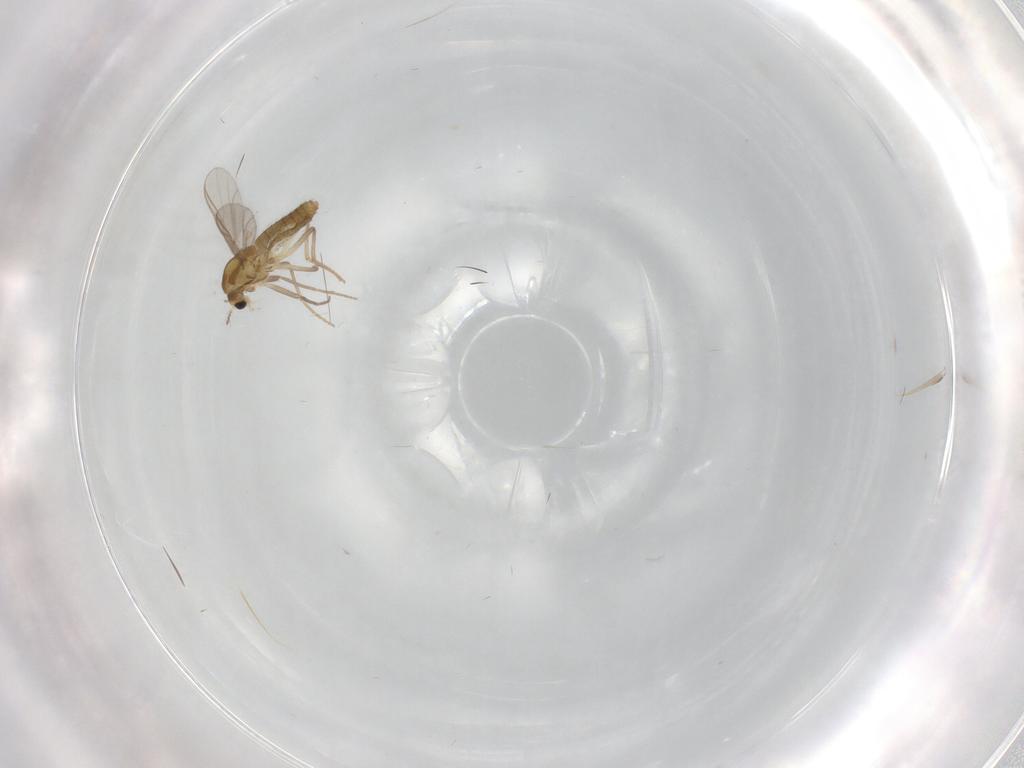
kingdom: Animalia
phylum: Arthropoda
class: Insecta
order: Diptera
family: Chironomidae
